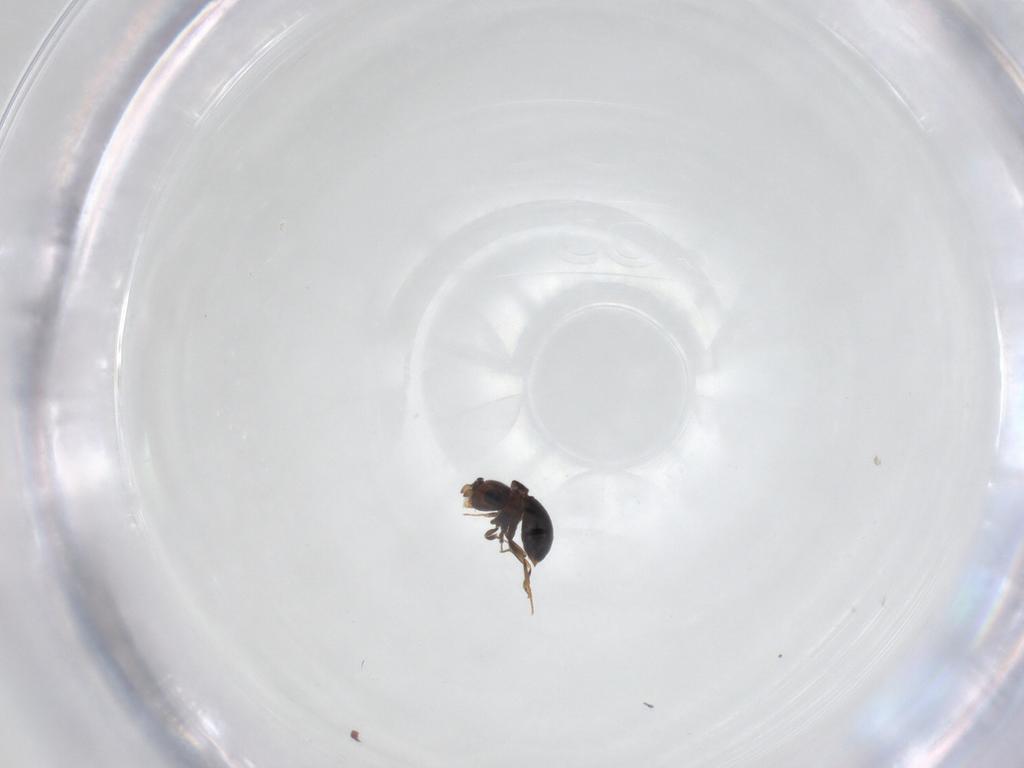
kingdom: Animalia
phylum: Arthropoda
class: Insecta
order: Hymenoptera
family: Scelionidae
